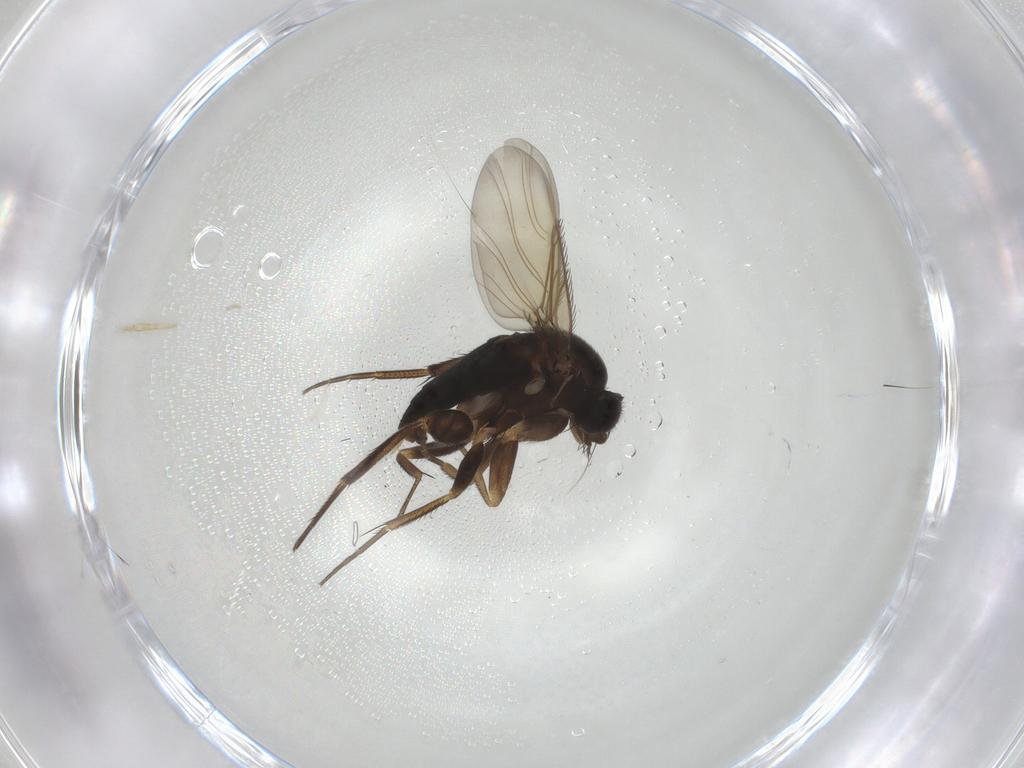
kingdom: Animalia
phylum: Arthropoda
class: Insecta
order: Diptera
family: Phoridae
